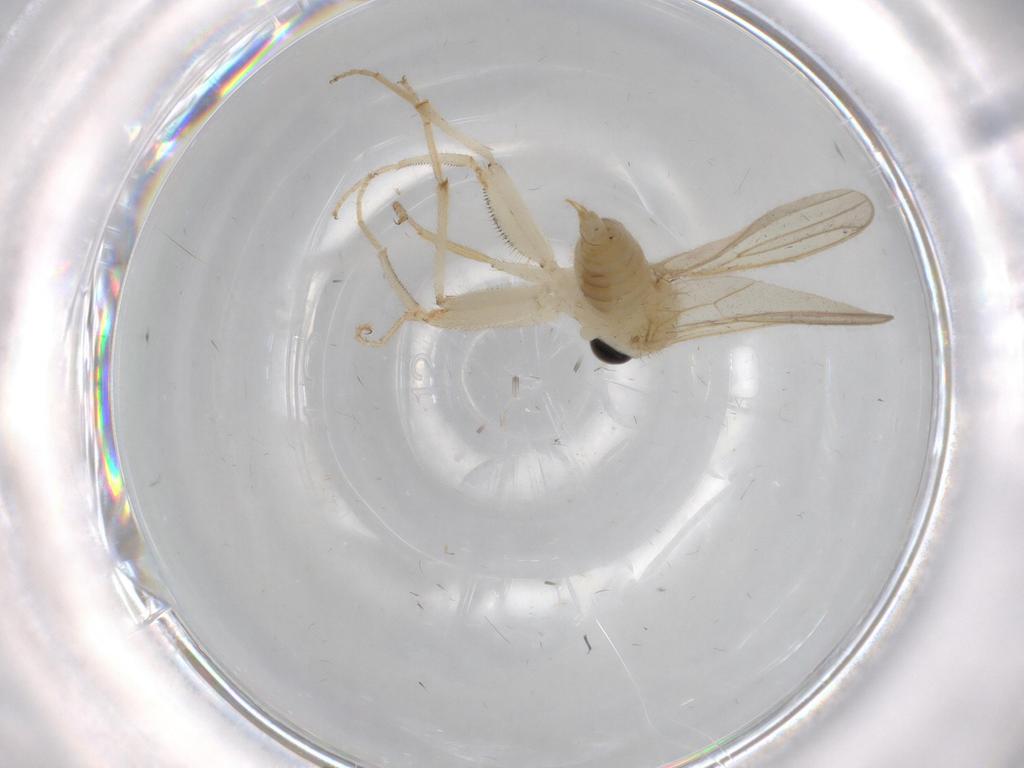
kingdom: Animalia
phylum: Arthropoda
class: Insecta
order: Diptera
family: Hybotidae
